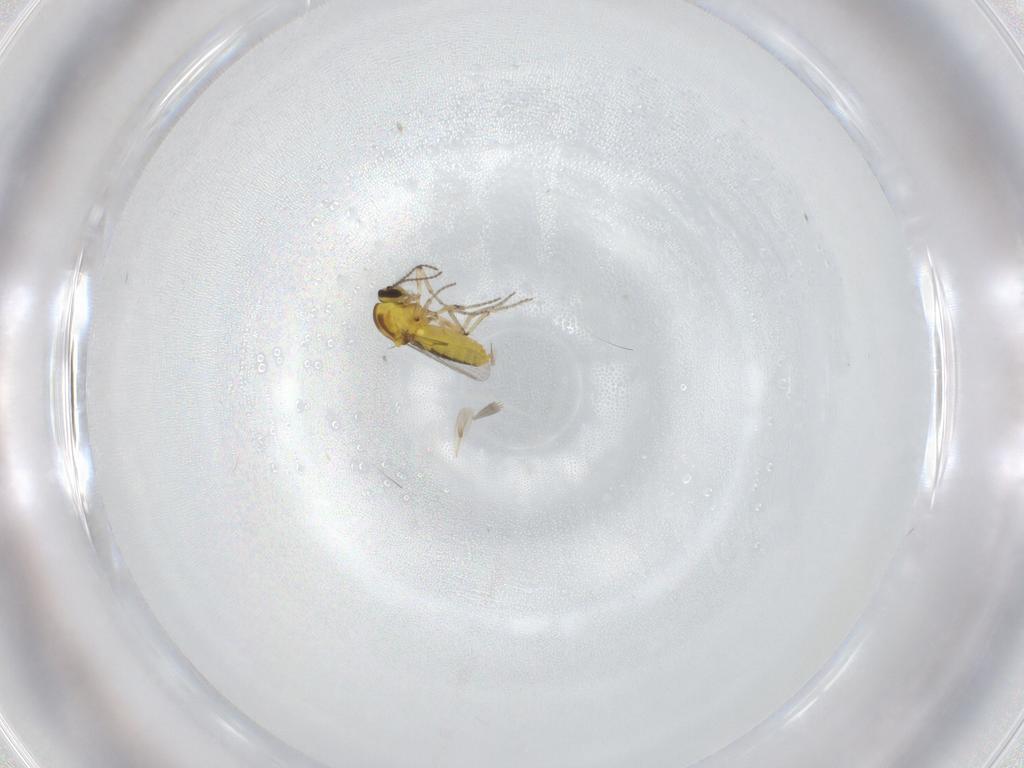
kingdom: Animalia
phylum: Arthropoda
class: Insecta
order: Diptera
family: Ceratopogonidae
